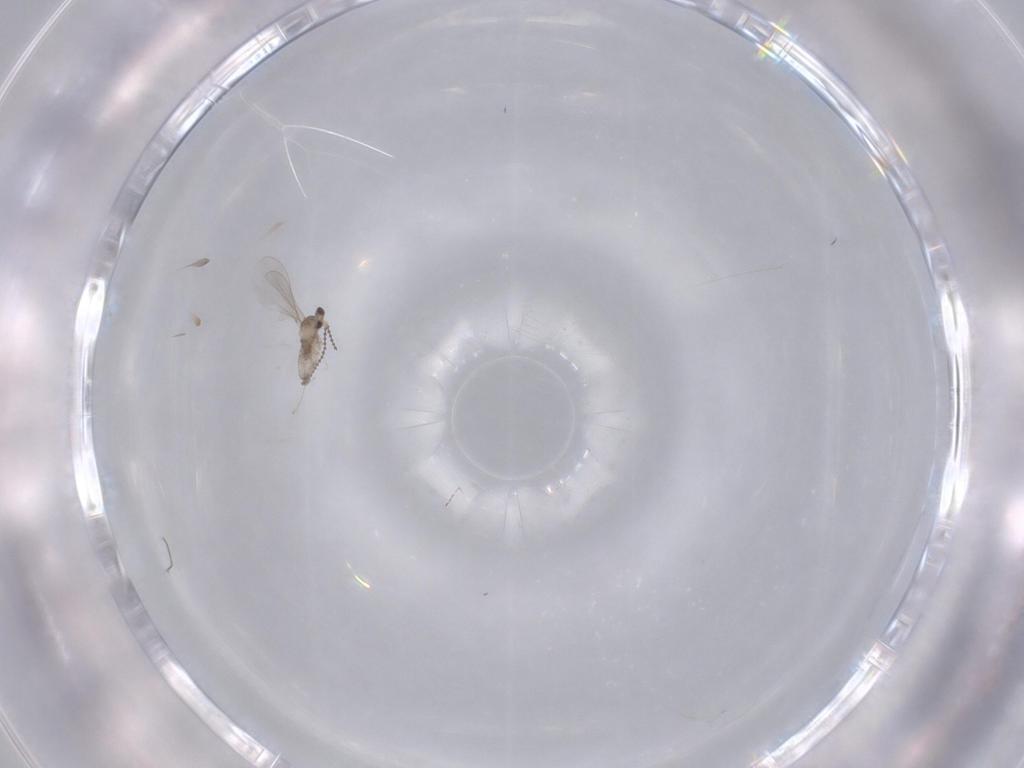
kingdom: Animalia
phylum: Arthropoda
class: Insecta
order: Diptera
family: Cecidomyiidae
